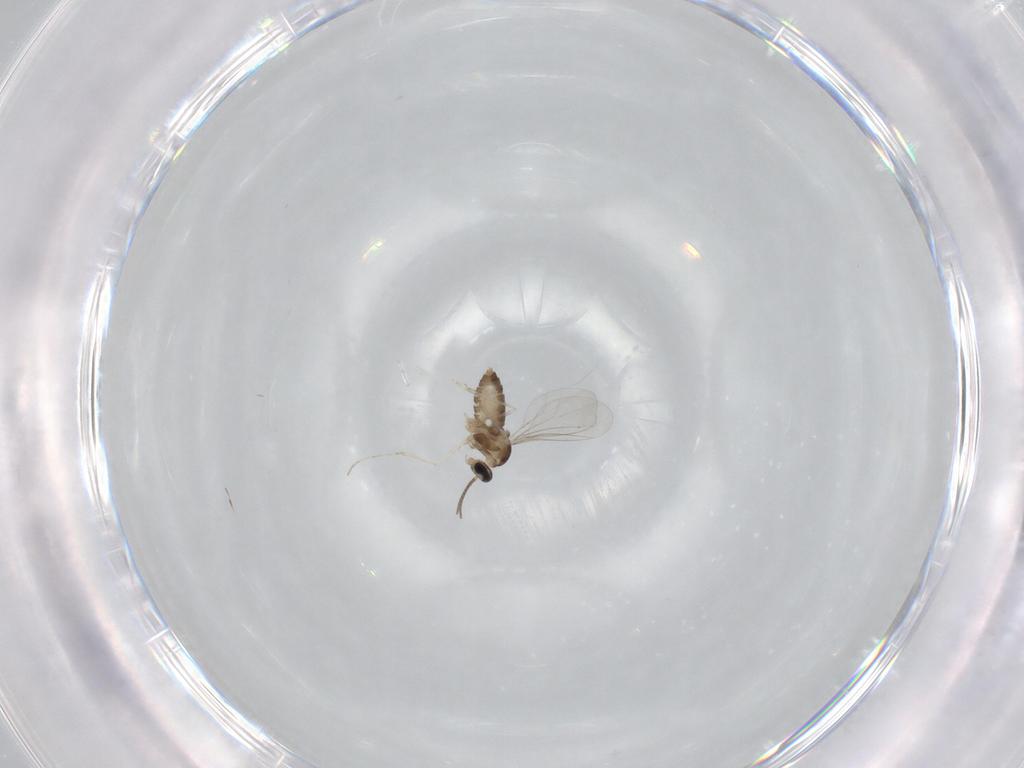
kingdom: Animalia
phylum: Arthropoda
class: Insecta
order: Diptera
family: Cecidomyiidae
